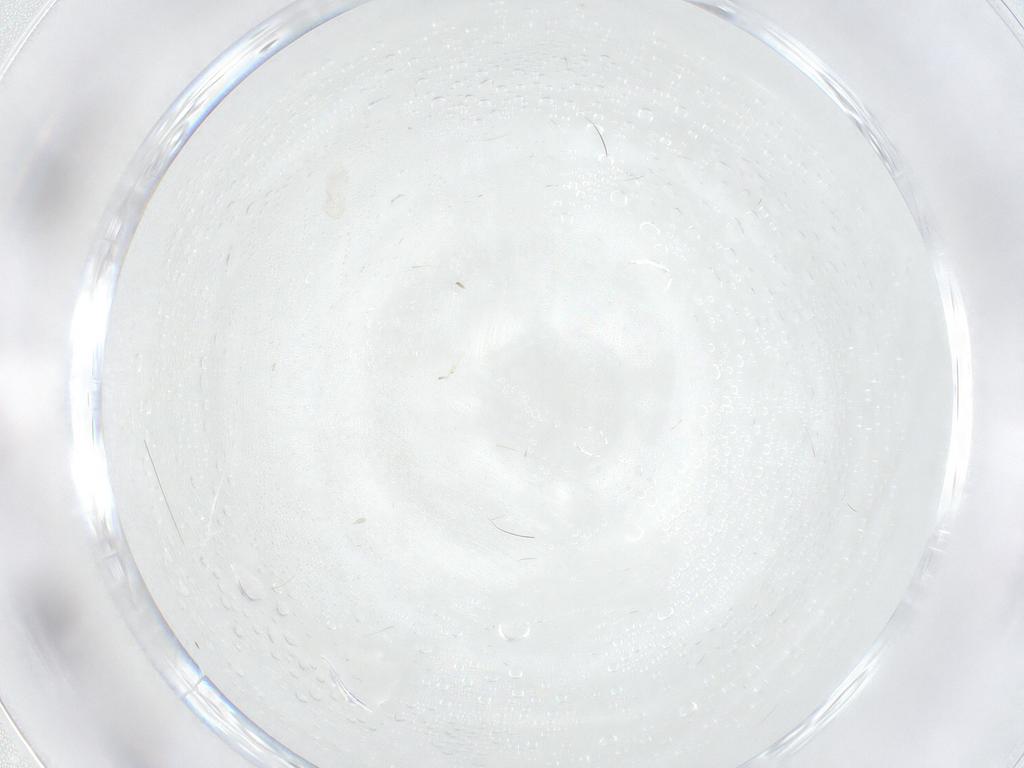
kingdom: Animalia
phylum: Arthropoda
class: Insecta
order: Diptera
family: Cecidomyiidae
